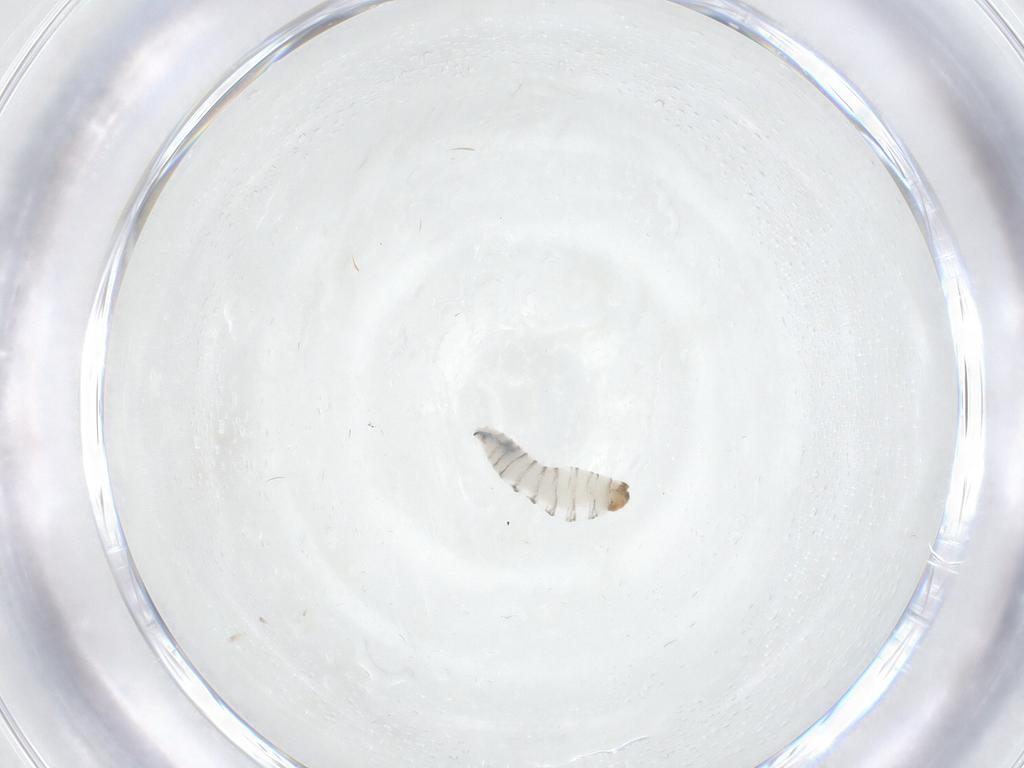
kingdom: Animalia
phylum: Arthropoda
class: Insecta
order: Diptera
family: Sarcophagidae
